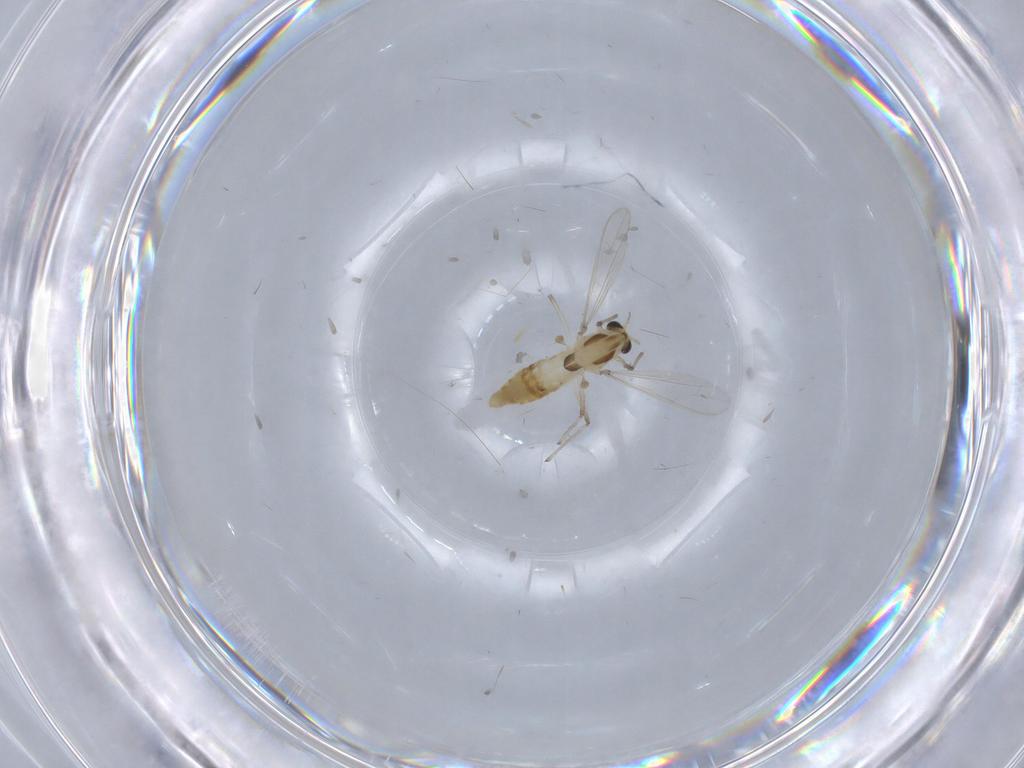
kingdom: Animalia
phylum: Arthropoda
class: Insecta
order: Diptera
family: Chironomidae
